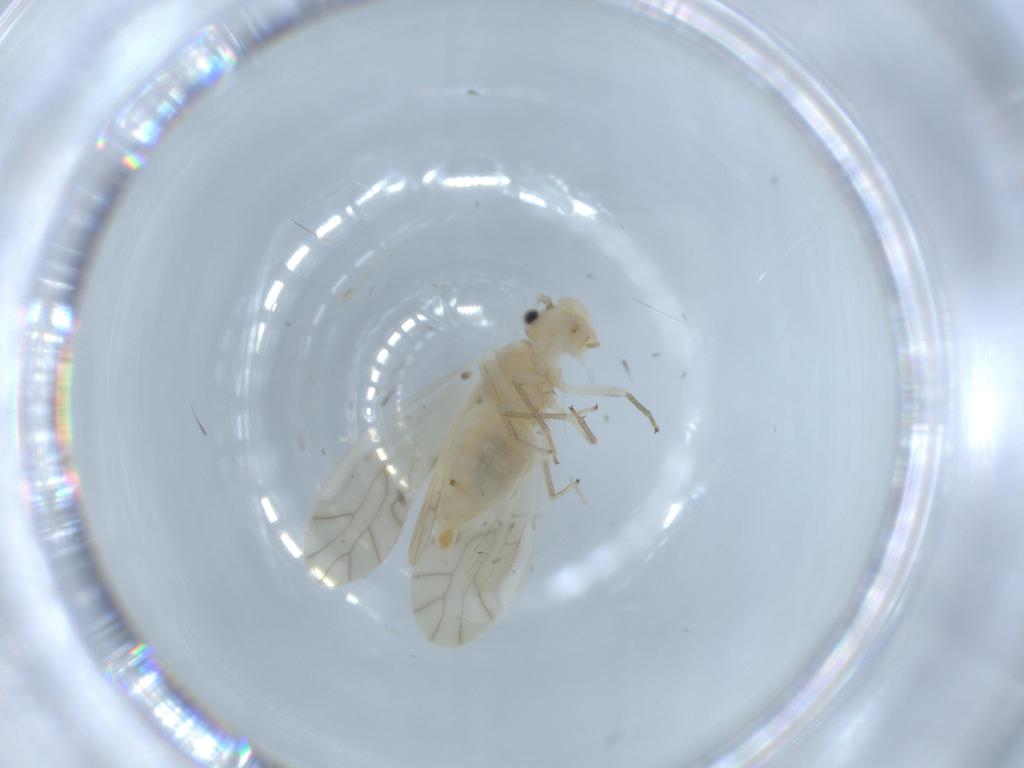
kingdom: Animalia
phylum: Arthropoda
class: Insecta
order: Psocodea
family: Caeciliusidae
